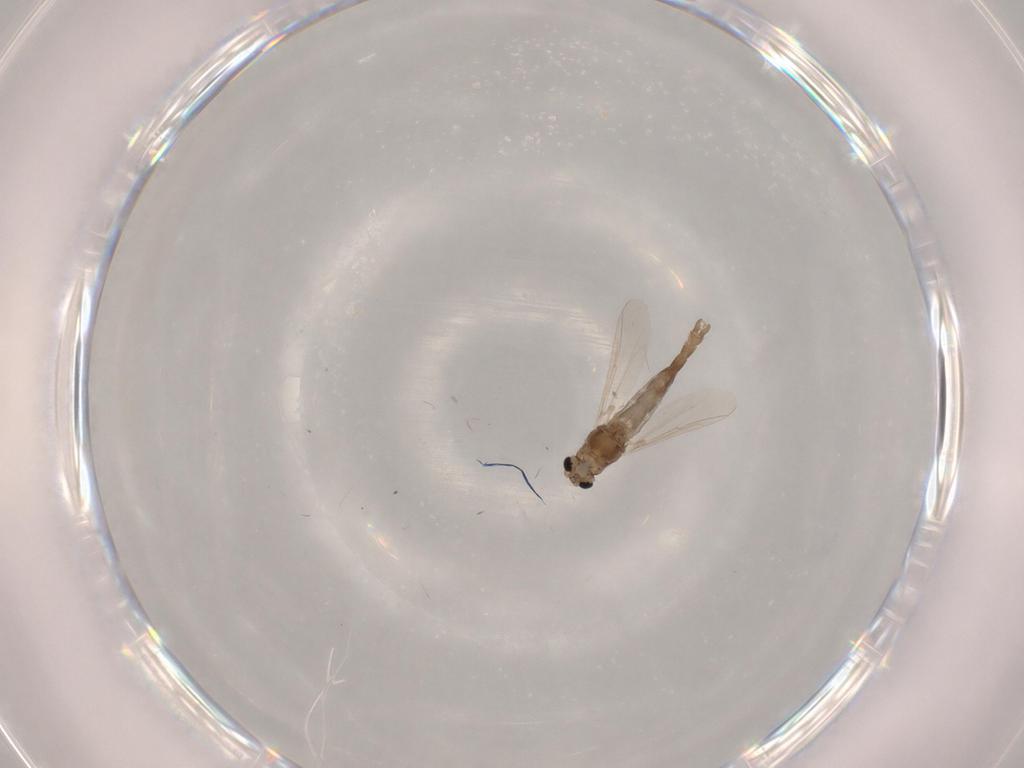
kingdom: Animalia
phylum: Arthropoda
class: Insecta
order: Diptera
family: Chironomidae
